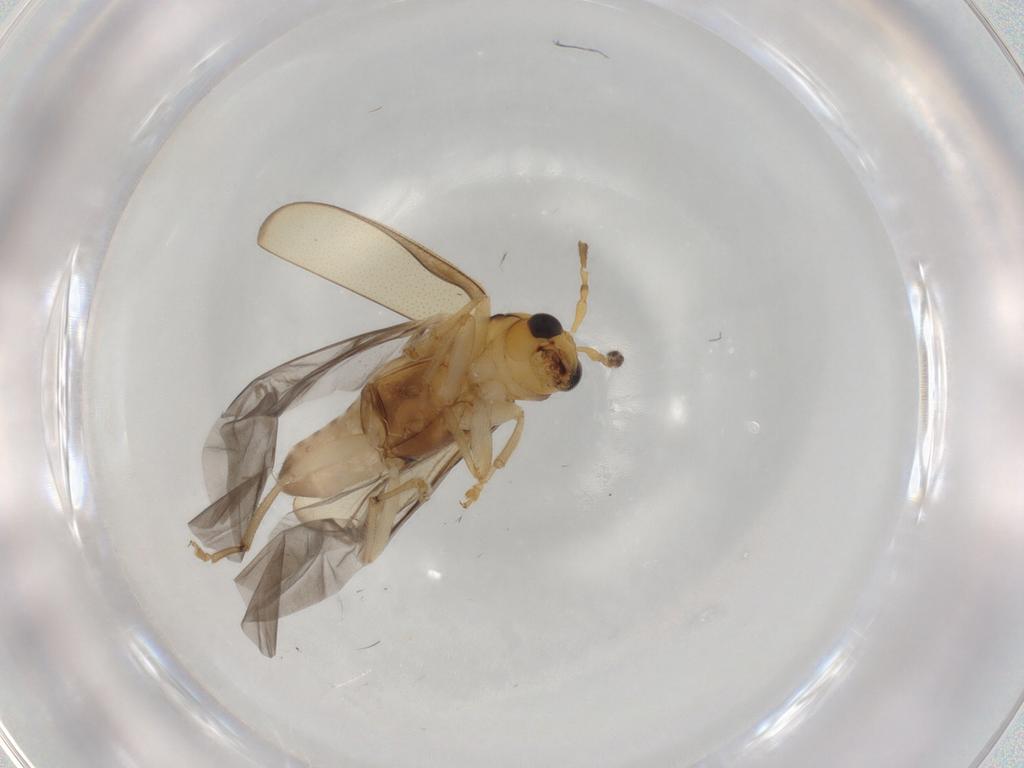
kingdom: Animalia
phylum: Arthropoda
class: Insecta
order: Coleoptera
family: Chrysomelidae
